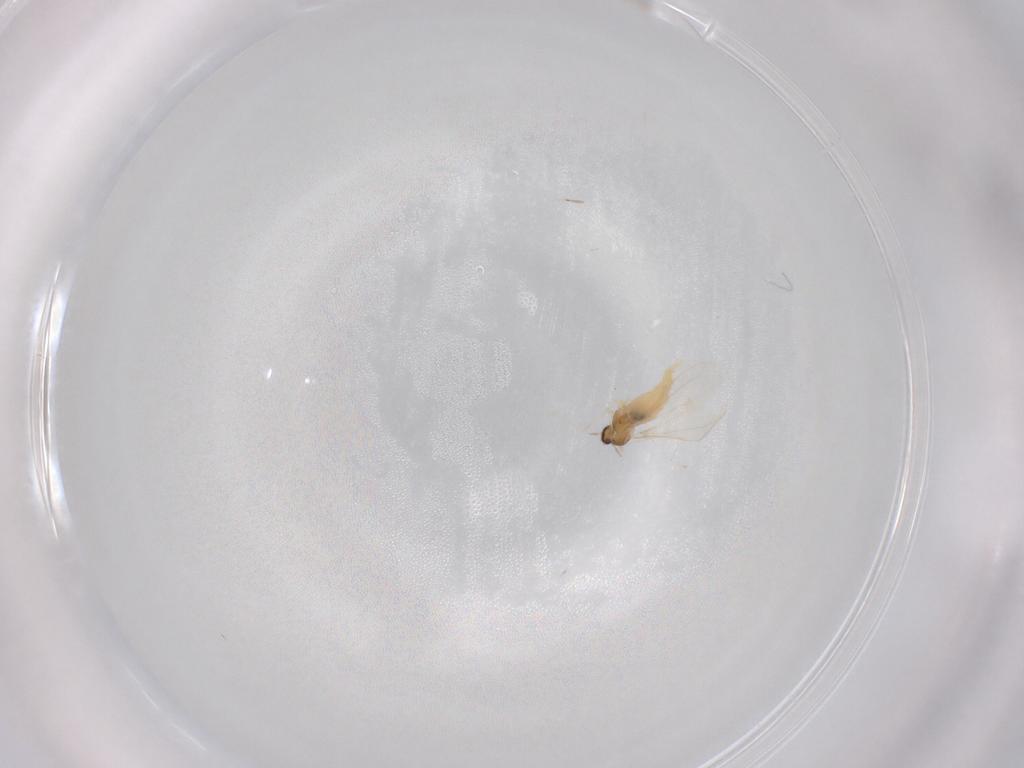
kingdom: Animalia
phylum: Arthropoda
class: Insecta
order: Diptera
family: Cecidomyiidae
